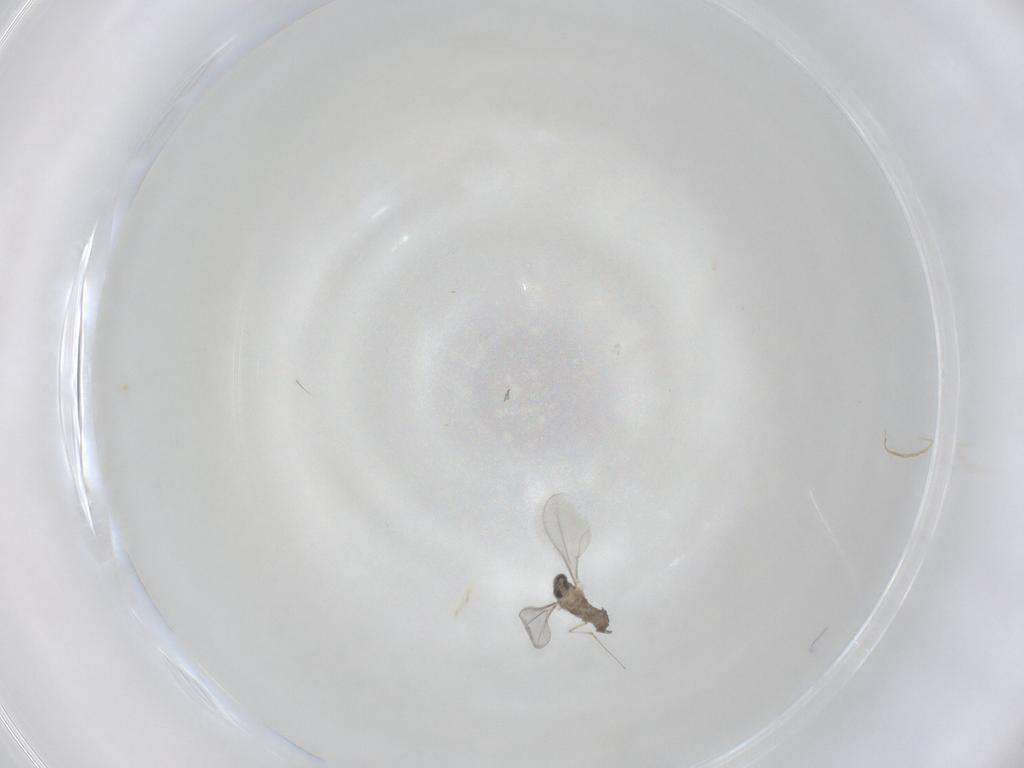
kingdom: Animalia
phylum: Arthropoda
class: Insecta
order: Diptera
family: Cecidomyiidae
